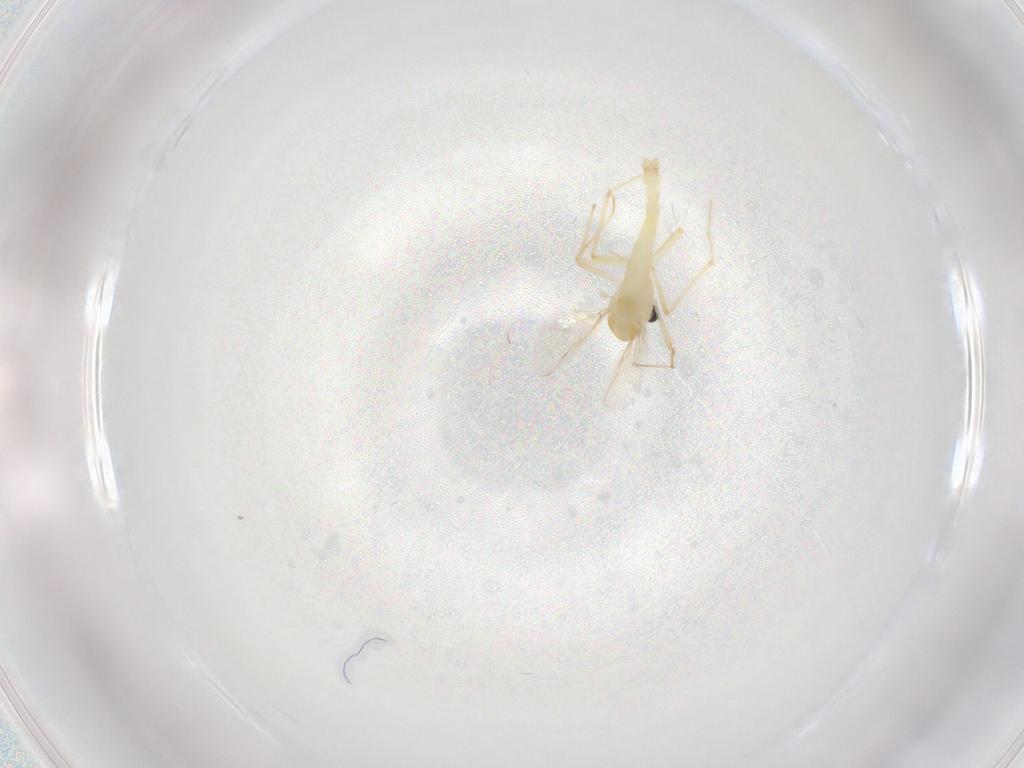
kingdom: Animalia
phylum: Arthropoda
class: Insecta
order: Diptera
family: Chironomidae
